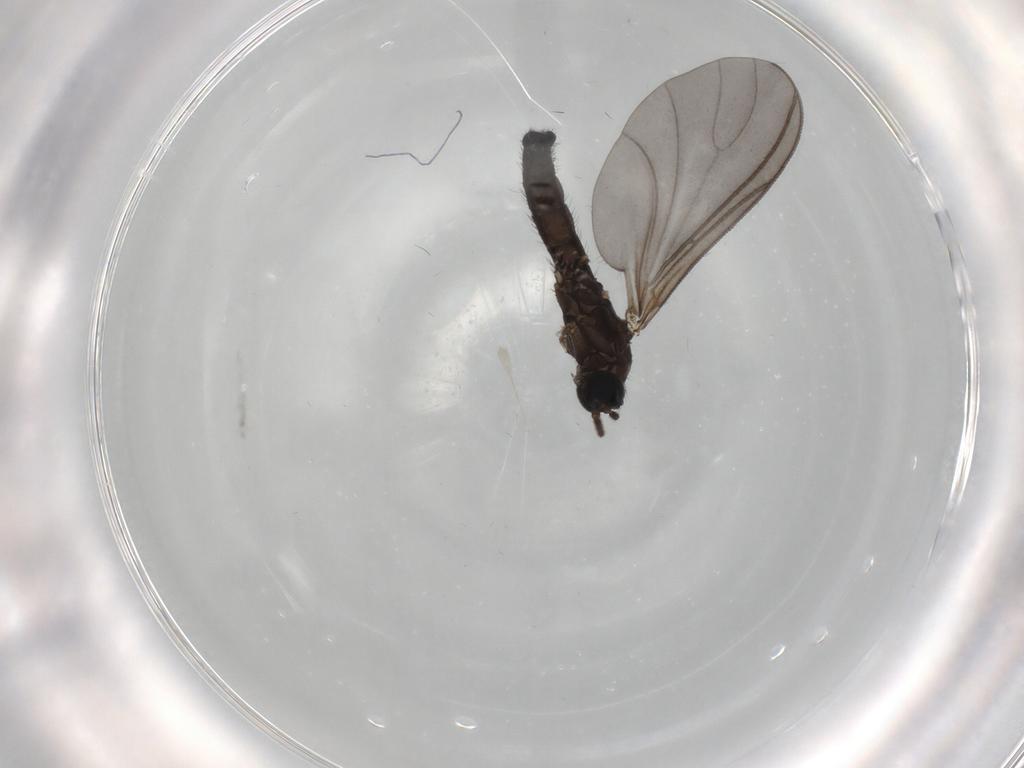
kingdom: Animalia
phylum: Arthropoda
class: Insecta
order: Diptera
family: Sciaridae
